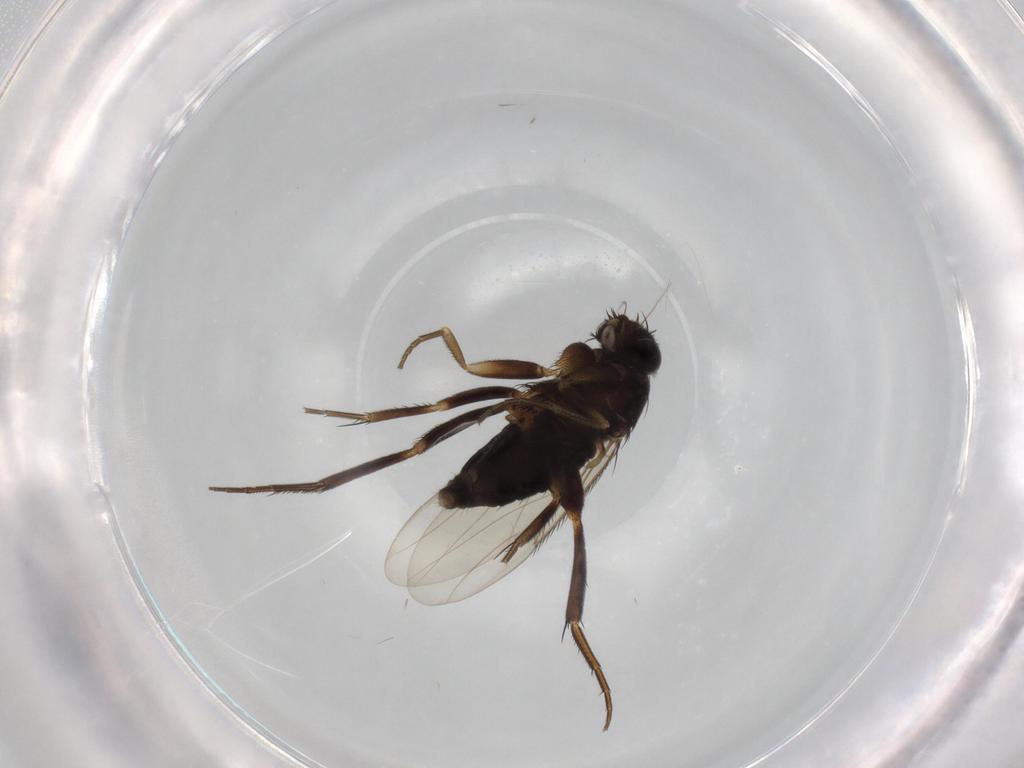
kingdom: Animalia
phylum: Arthropoda
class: Insecta
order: Diptera
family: Phoridae
